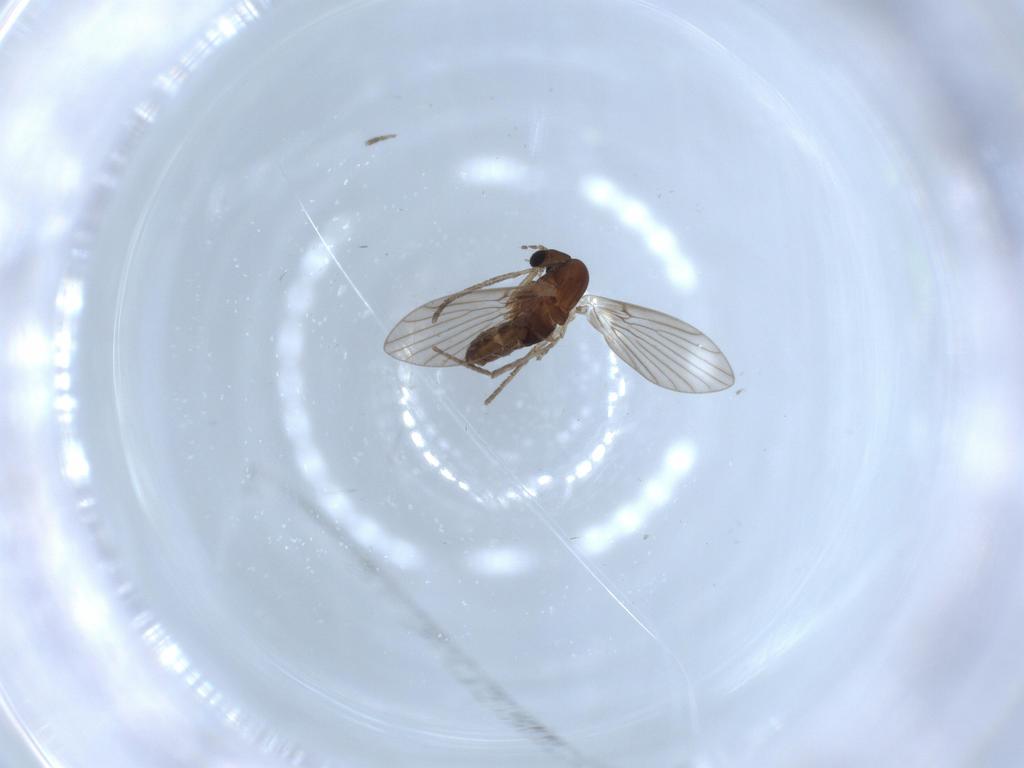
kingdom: Animalia
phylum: Arthropoda
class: Insecta
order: Diptera
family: Psychodidae
